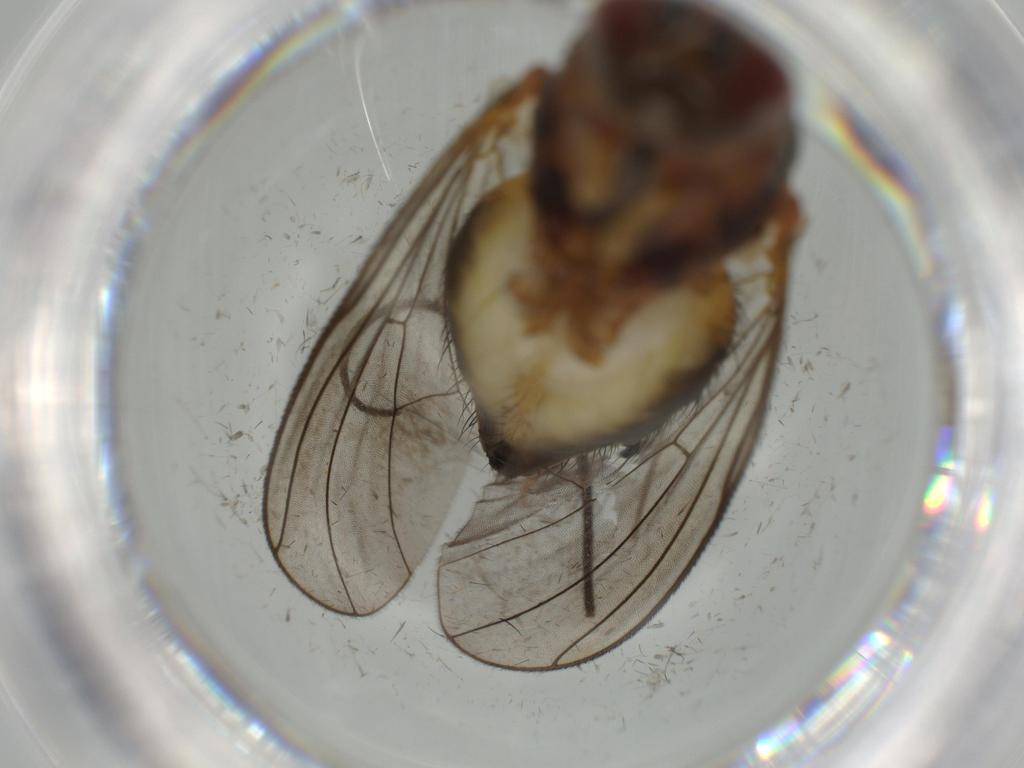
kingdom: Animalia
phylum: Arthropoda
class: Insecta
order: Diptera
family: Phoridae
